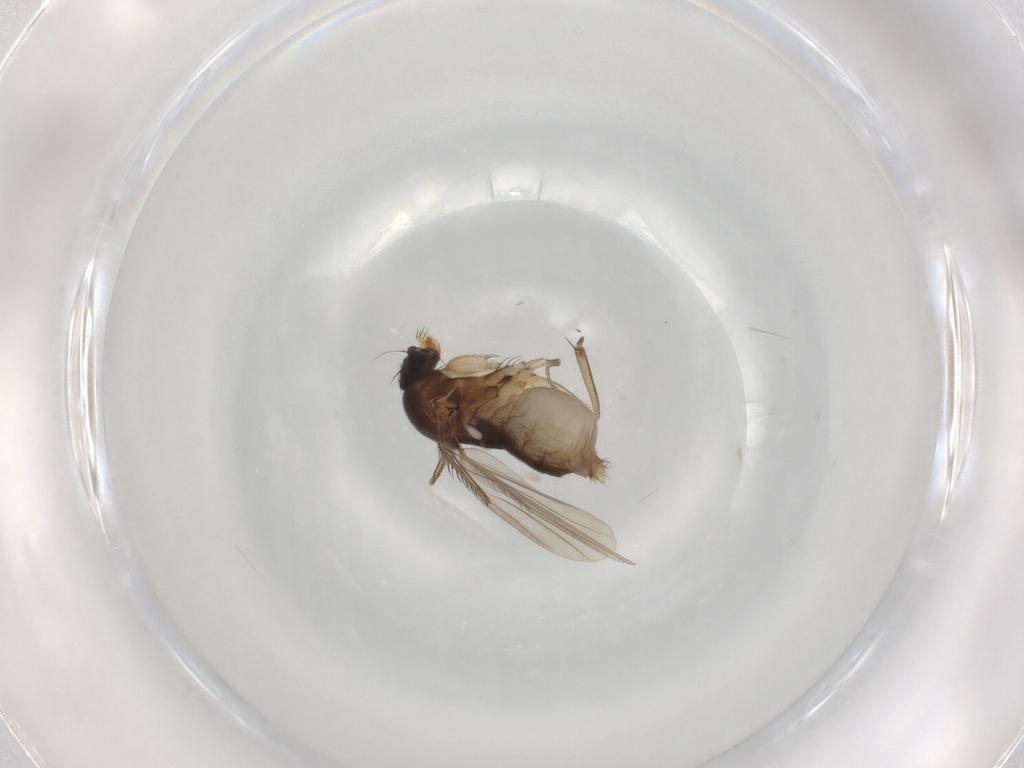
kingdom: Animalia
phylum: Arthropoda
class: Insecta
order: Diptera
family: Phoridae
